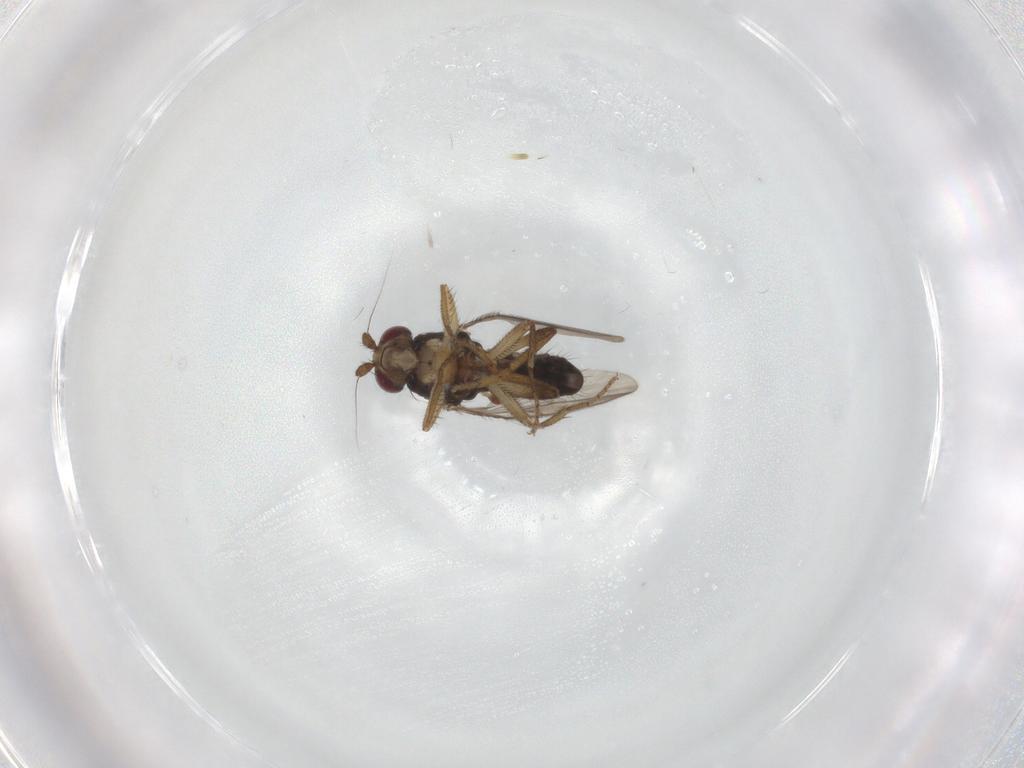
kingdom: Animalia
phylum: Arthropoda
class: Insecta
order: Diptera
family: Sphaeroceridae
